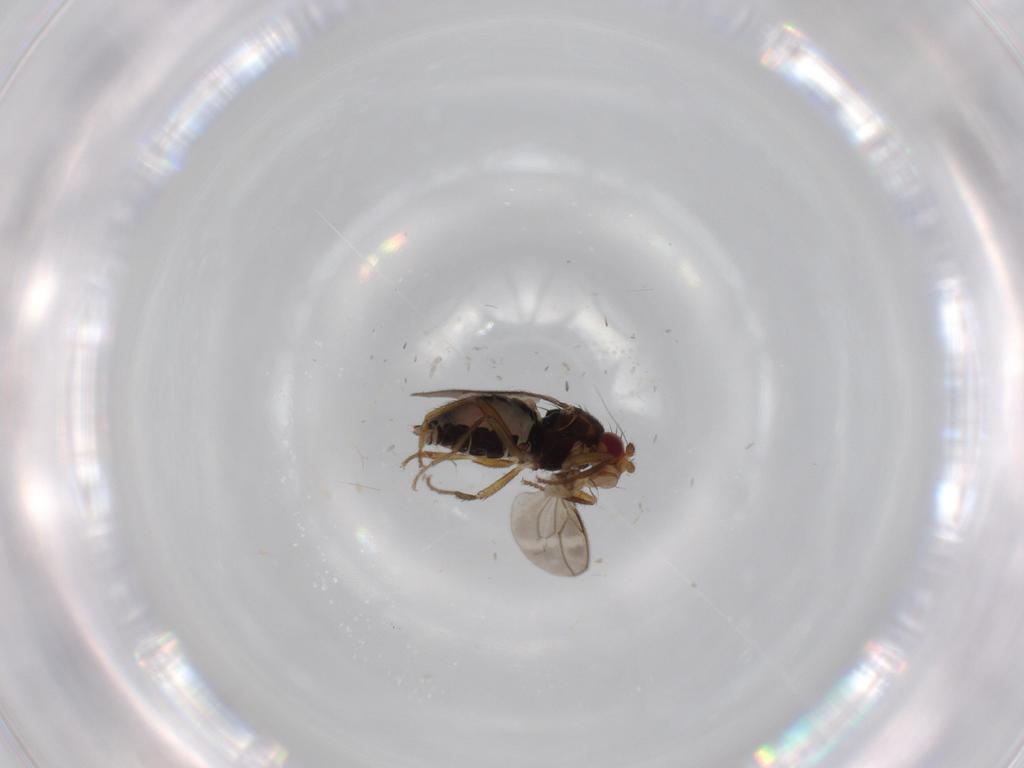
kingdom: Animalia
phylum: Arthropoda
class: Insecta
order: Diptera
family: Sphaeroceridae
